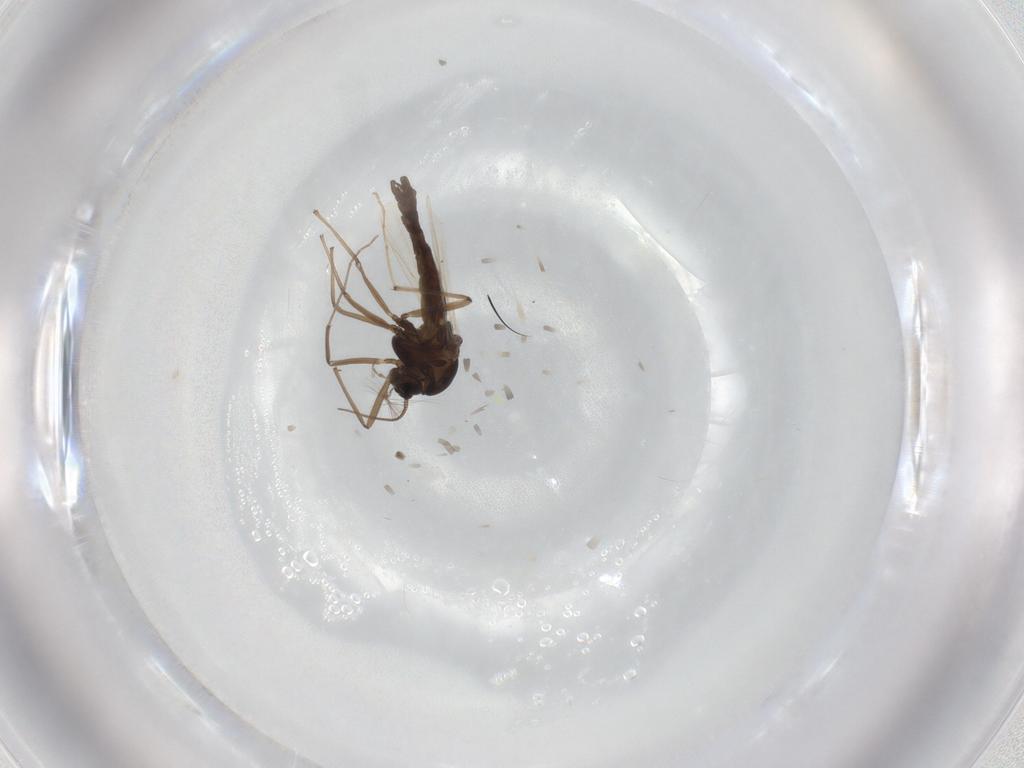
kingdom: Animalia
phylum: Arthropoda
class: Insecta
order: Diptera
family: Chironomidae
